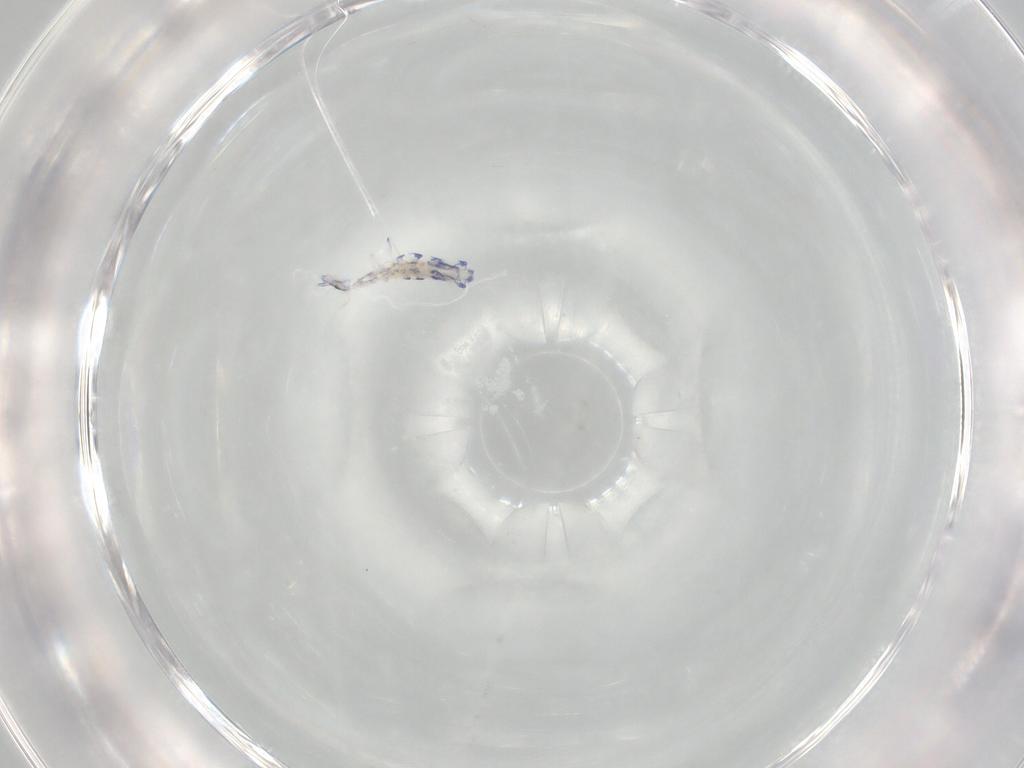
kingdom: Animalia
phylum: Arthropoda
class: Collembola
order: Entomobryomorpha
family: Entomobryidae
